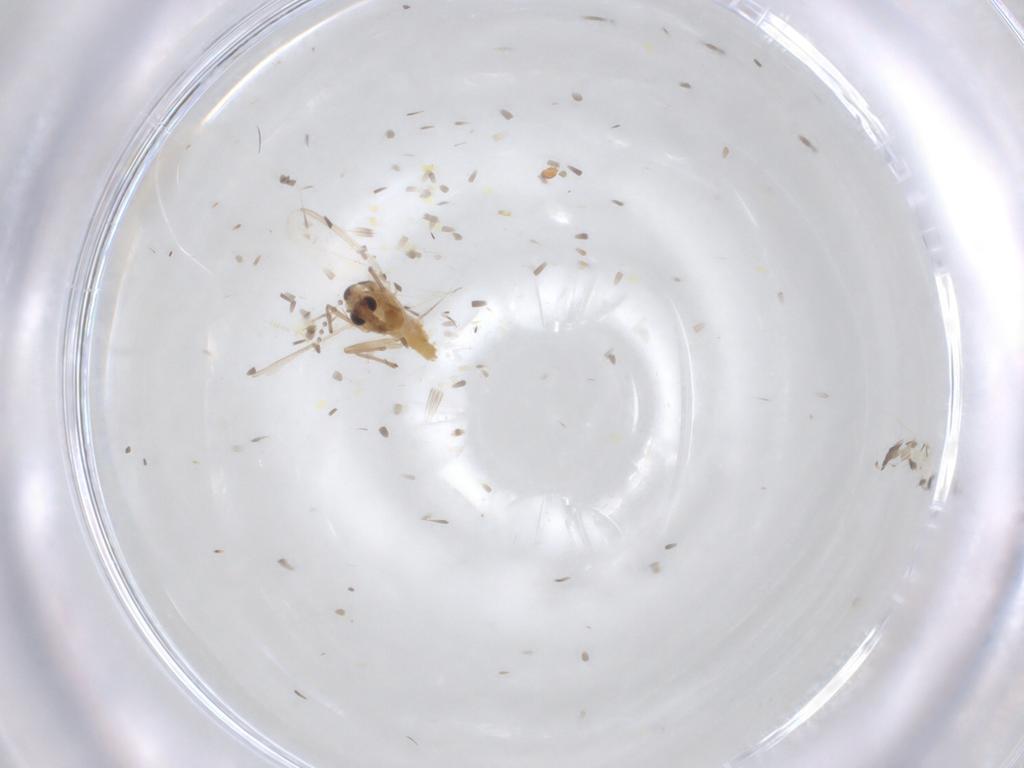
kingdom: Animalia
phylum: Arthropoda
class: Insecta
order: Diptera
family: Chironomidae
